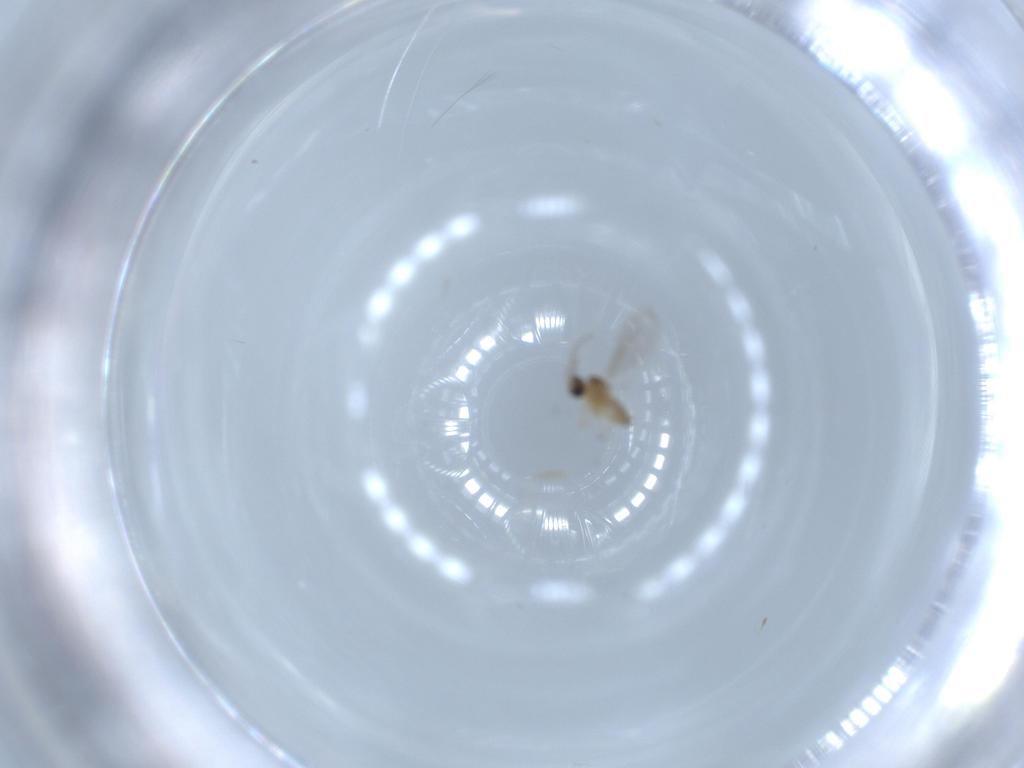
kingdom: Animalia
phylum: Arthropoda
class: Insecta
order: Diptera
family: Cecidomyiidae
